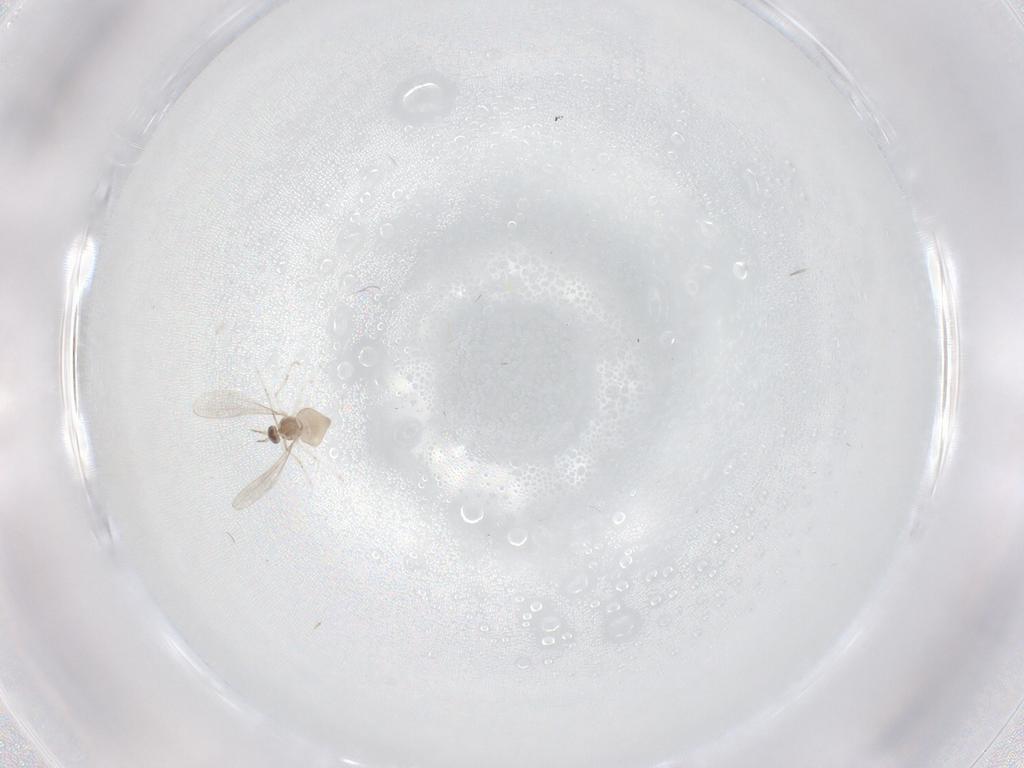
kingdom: Animalia
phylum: Arthropoda
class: Insecta
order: Diptera
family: Cecidomyiidae
